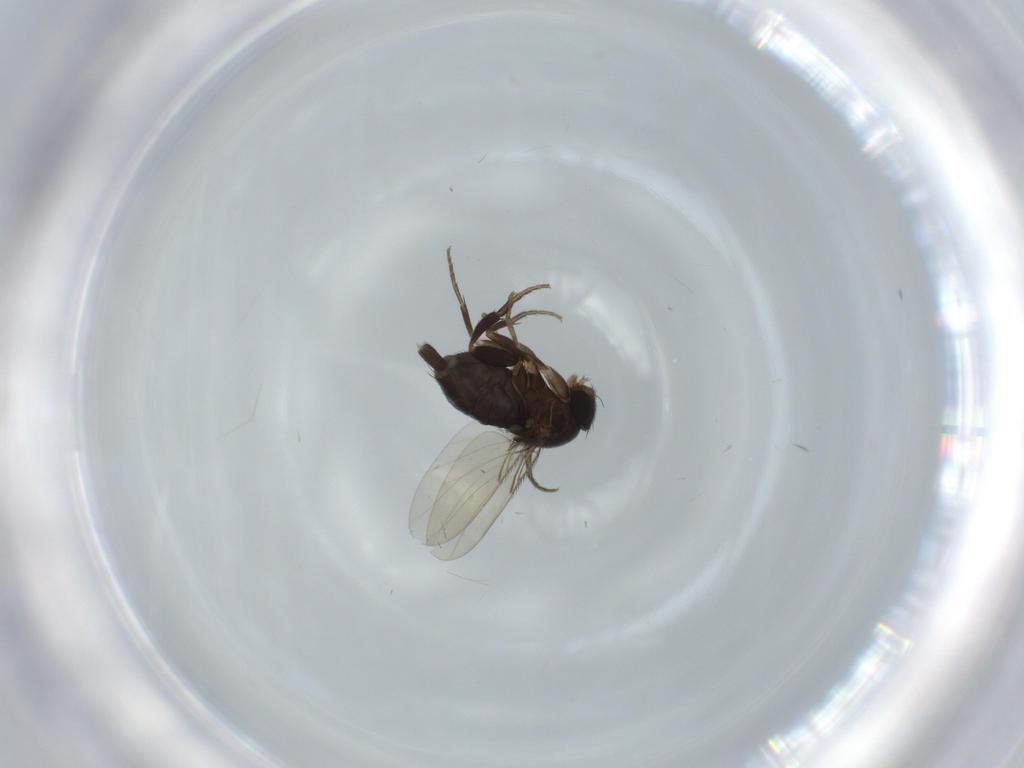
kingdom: Animalia
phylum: Arthropoda
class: Insecta
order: Diptera
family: Phoridae
